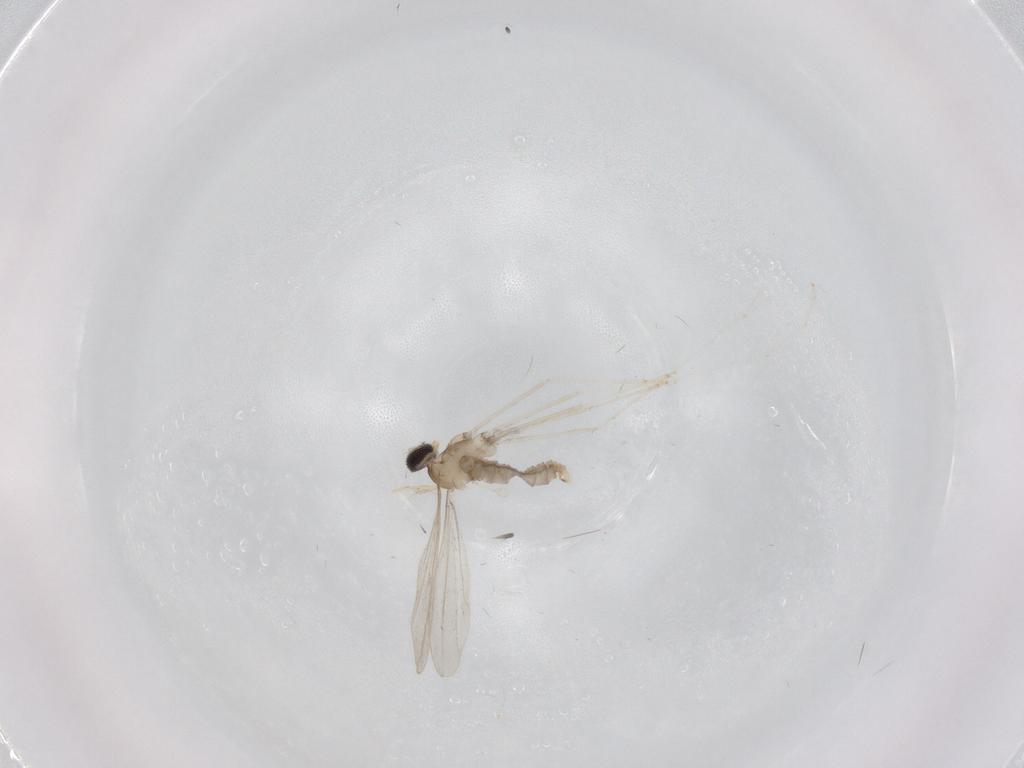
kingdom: Animalia
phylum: Arthropoda
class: Insecta
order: Diptera
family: Cecidomyiidae
